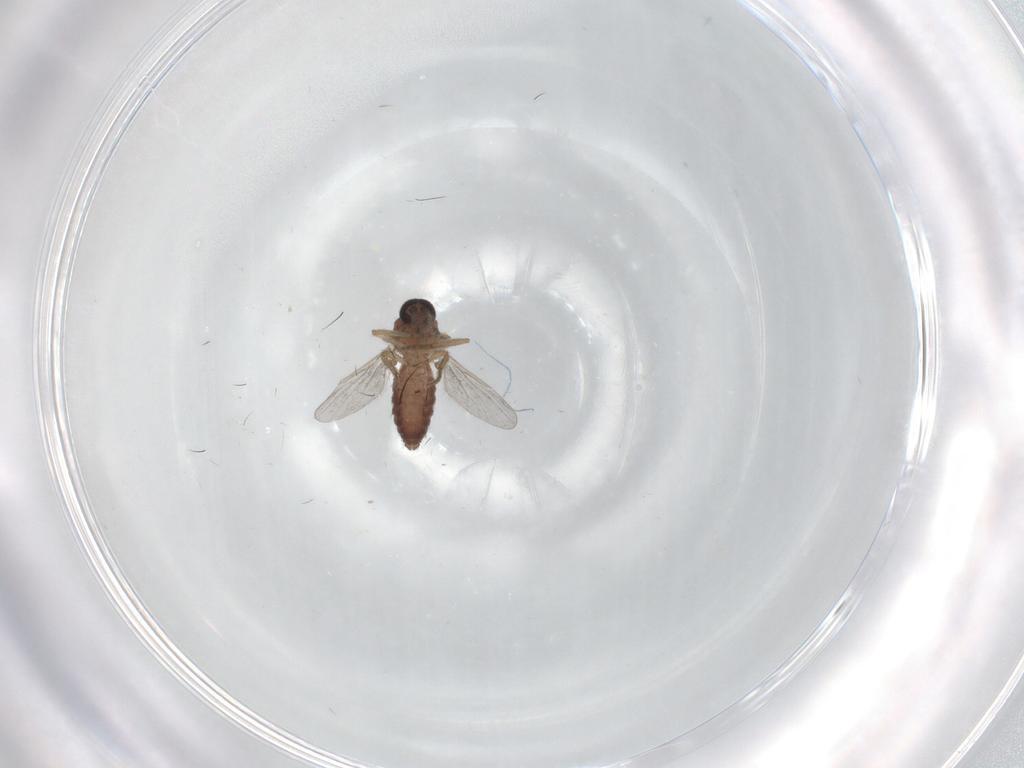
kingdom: Animalia
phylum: Arthropoda
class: Insecta
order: Diptera
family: Ceratopogonidae
